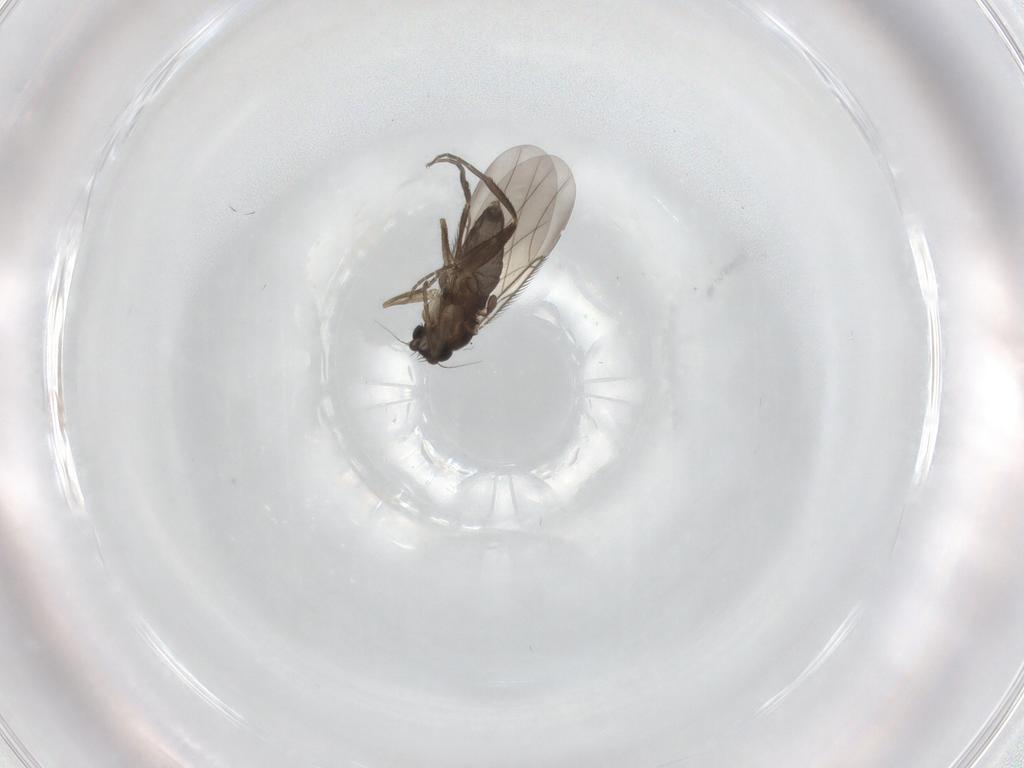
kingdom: Animalia
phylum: Arthropoda
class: Insecta
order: Diptera
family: Phoridae
